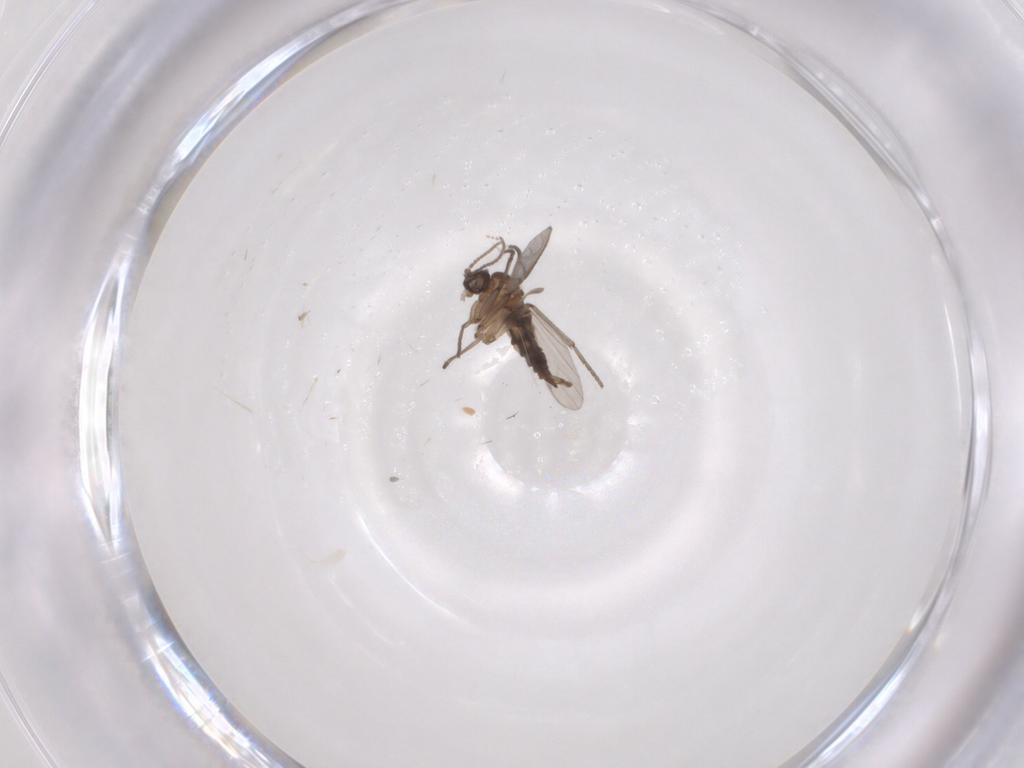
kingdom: Animalia
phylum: Arthropoda
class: Insecta
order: Diptera
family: Sciaridae
